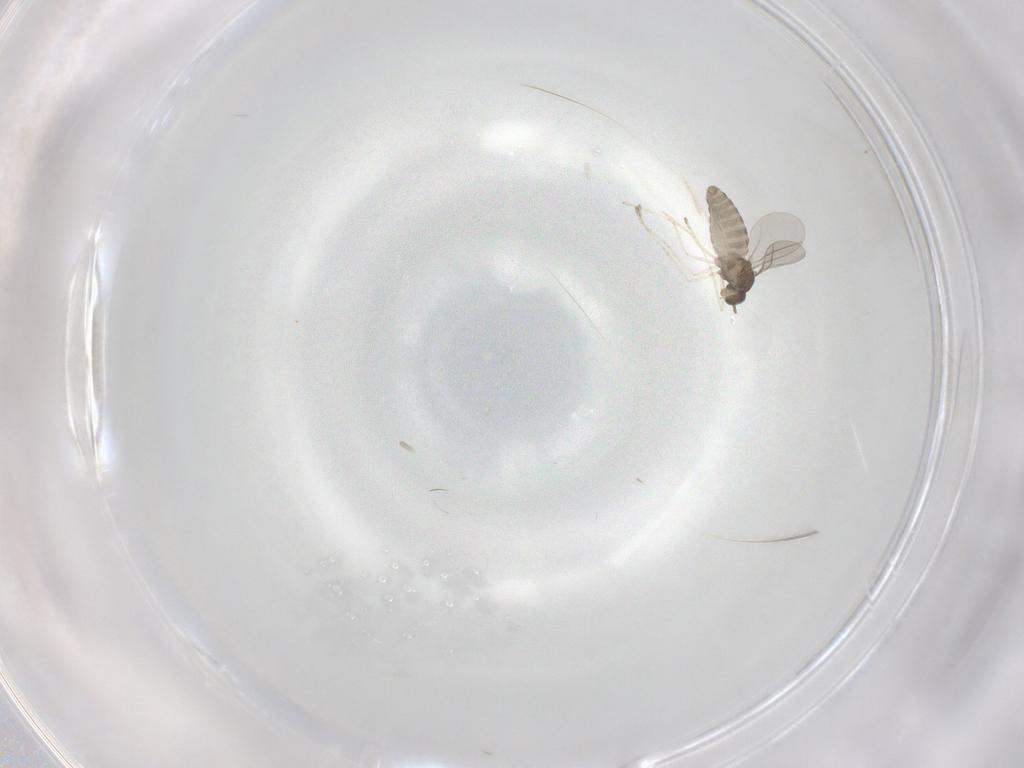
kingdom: Animalia
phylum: Arthropoda
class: Insecta
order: Diptera
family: Cecidomyiidae
